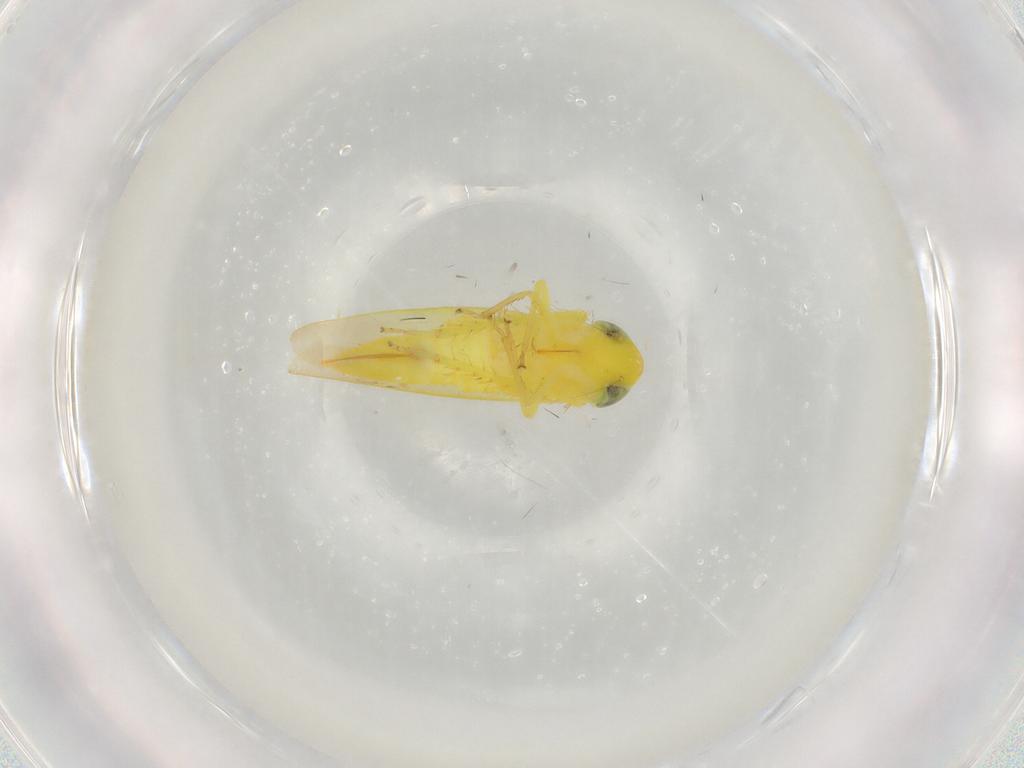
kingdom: Animalia
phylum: Arthropoda
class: Insecta
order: Hemiptera
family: Cicadellidae
